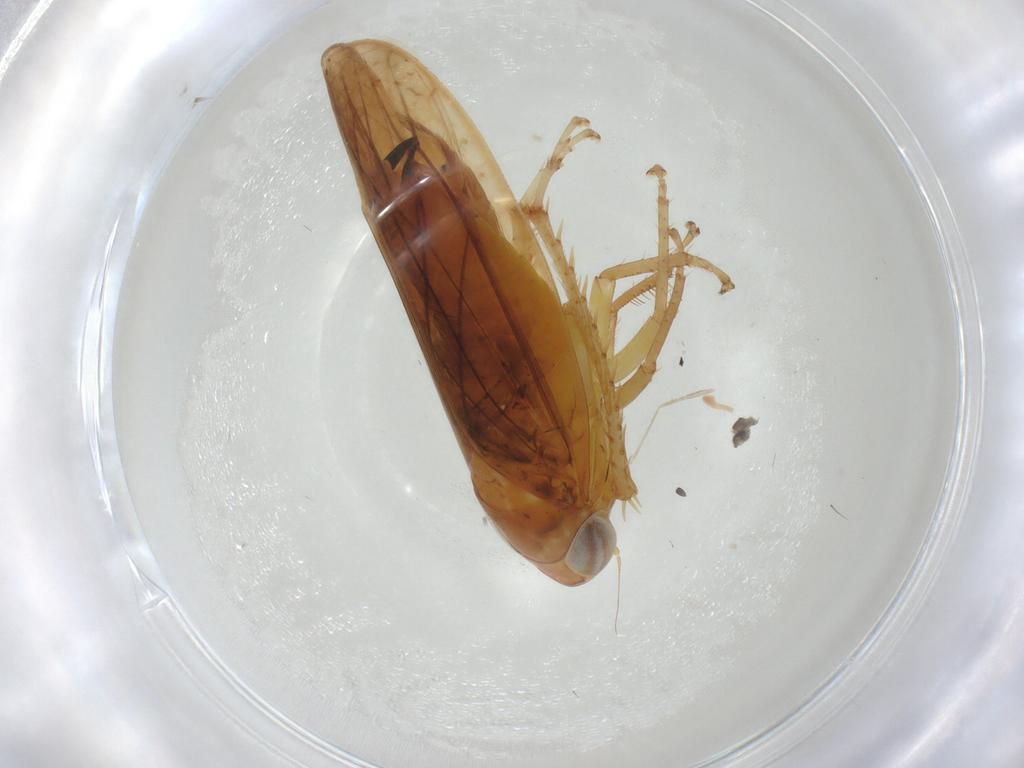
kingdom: Animalia
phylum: Arthropoda
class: Insecta
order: Hemiptera
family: Cicadellidae
